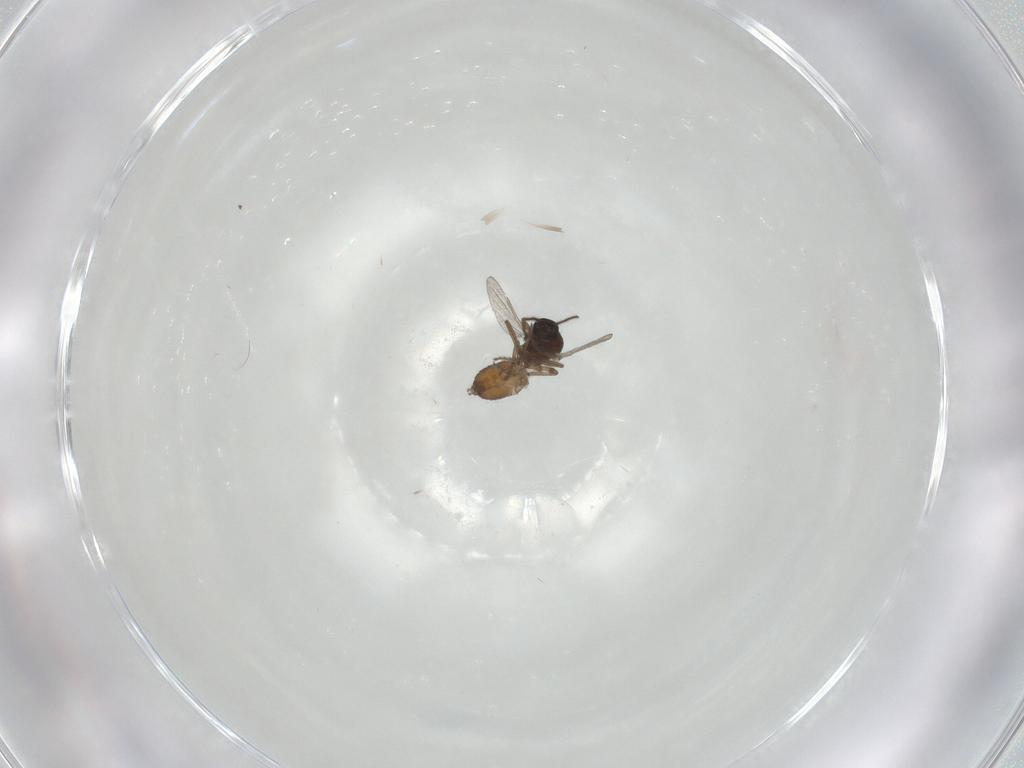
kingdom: Animalia
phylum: Arthropoda
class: Insecta
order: Diptera
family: Ceratopogonidae
